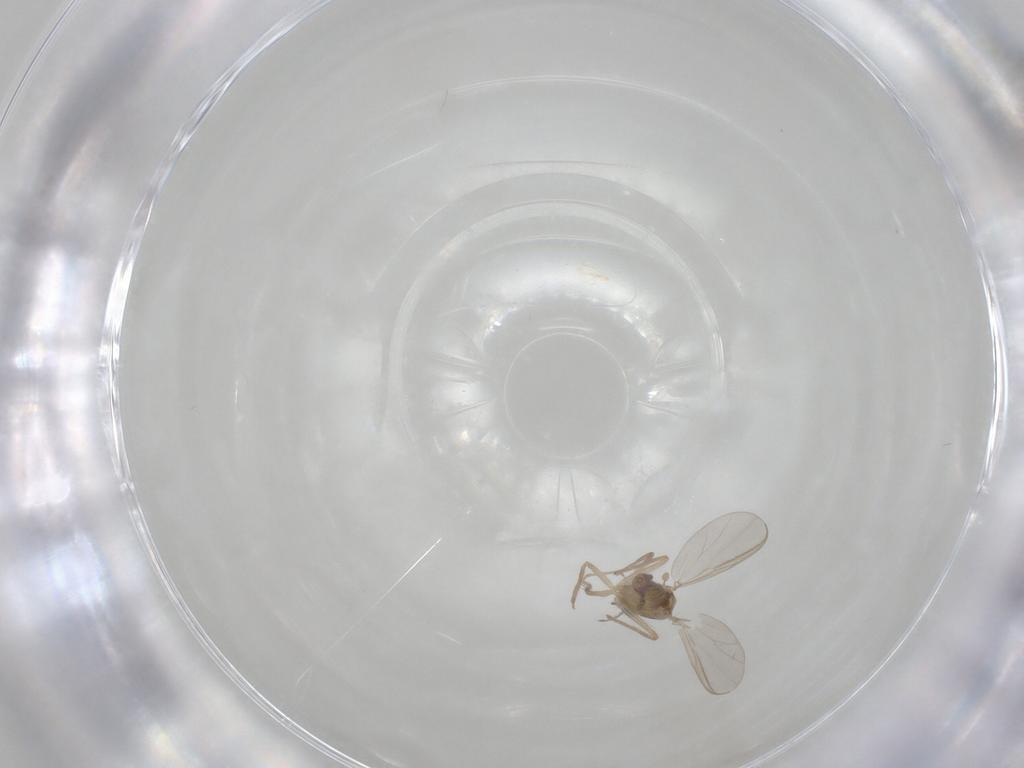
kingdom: Animalia
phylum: Arthropoda
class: Insecta
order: Diptera
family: Chironomidae
